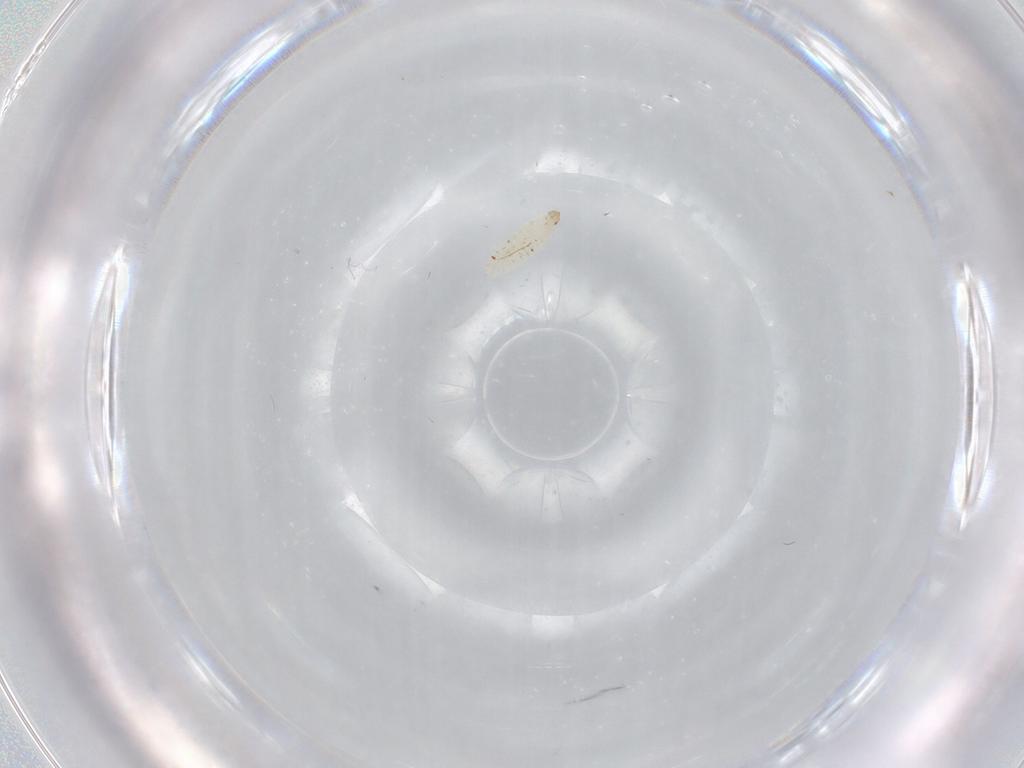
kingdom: Animalia
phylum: Arthropoda
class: Insecta
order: Diptera
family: Cecidomyiidae
